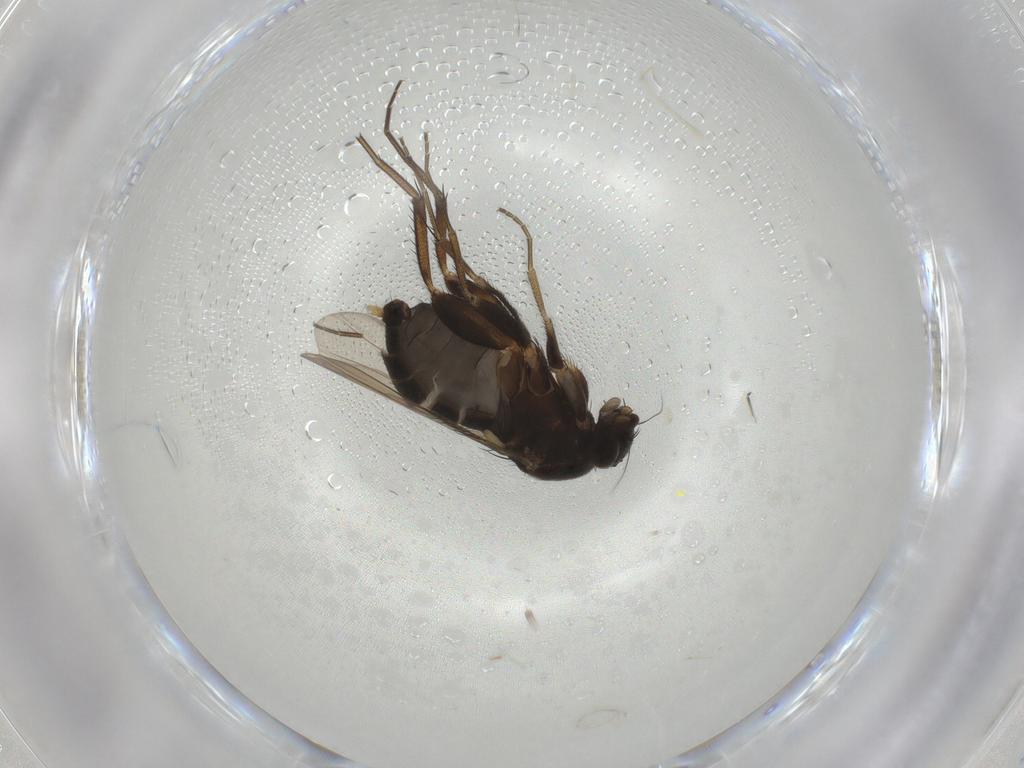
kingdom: Animalia
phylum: Arthropoda
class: Insecta
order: Diptera
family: Phoridae
